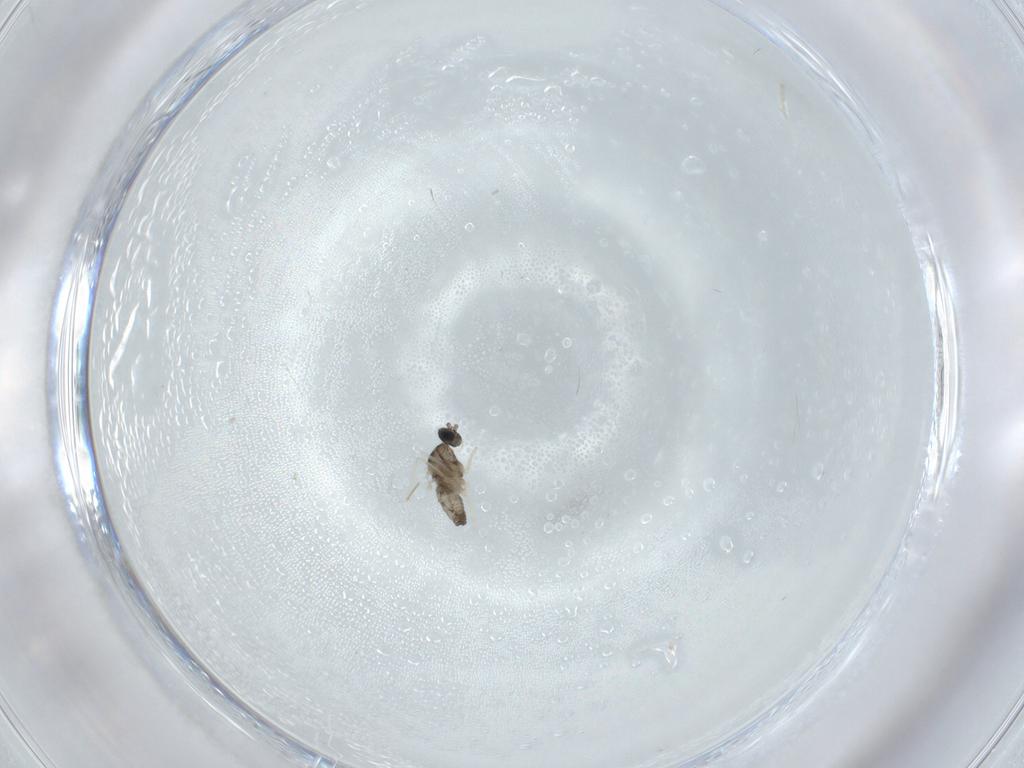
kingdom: Animalia
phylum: Arthropoda
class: Insecta
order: Diptera
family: Cecidomyiidae
